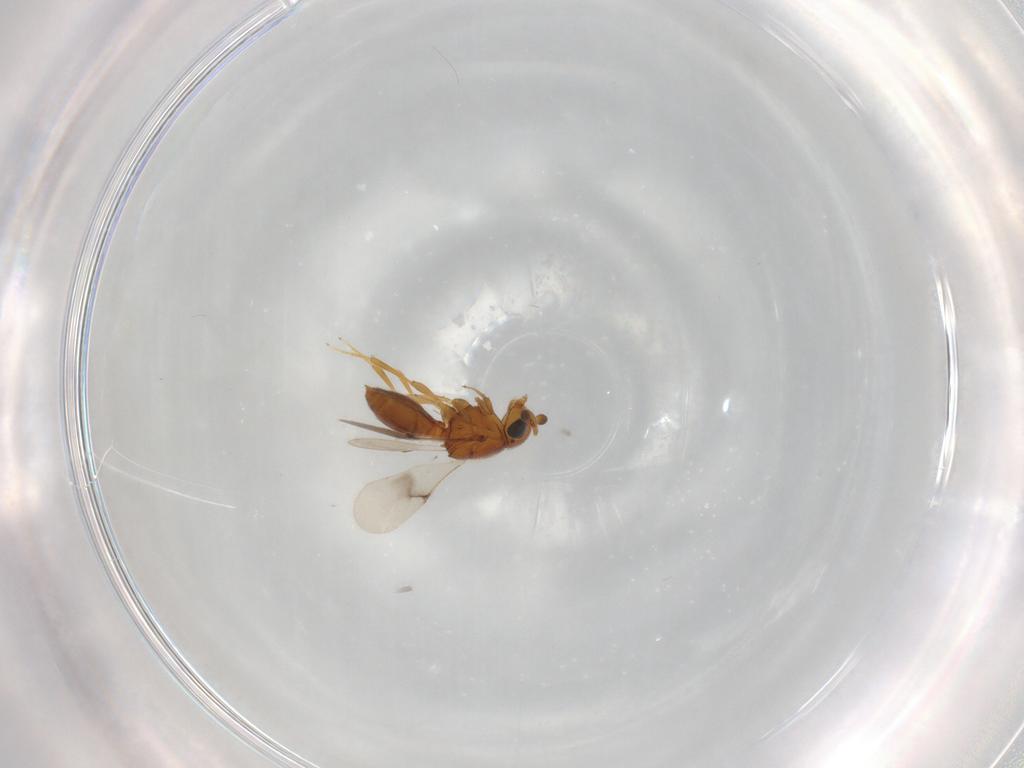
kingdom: Animalia
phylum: Arthropoda
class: Insecta
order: Hymenoptera
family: Scelionidae
